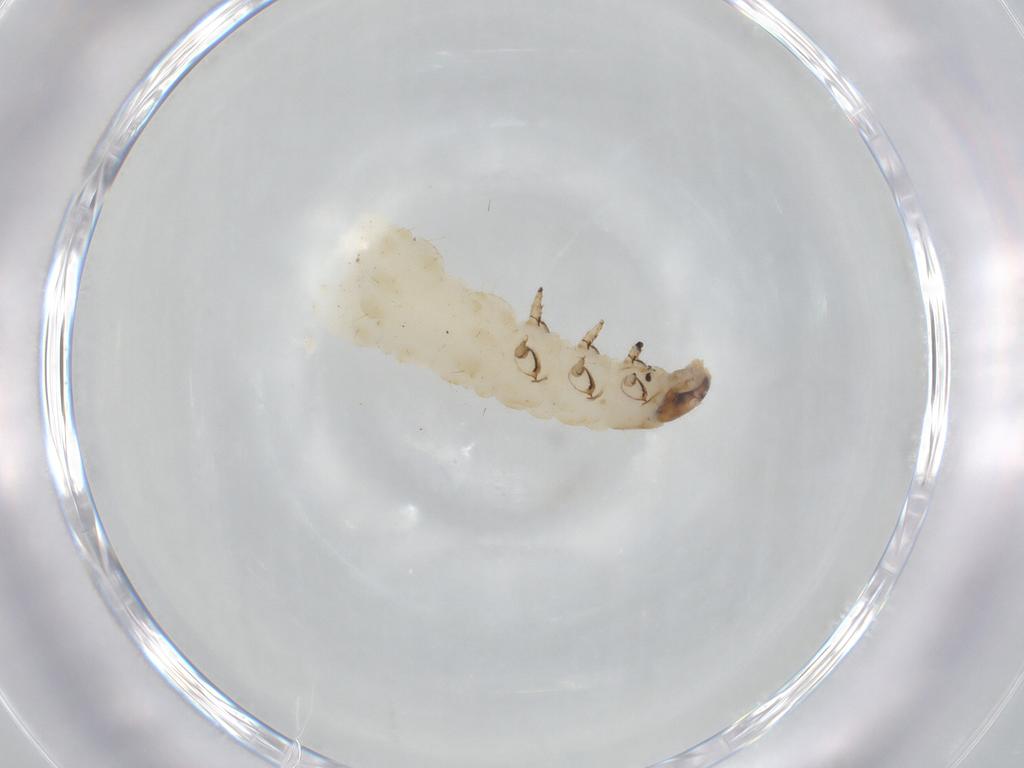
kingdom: Animalia
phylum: Arthropoda
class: Insecta
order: Coleoptera
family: Chrysomelidae
